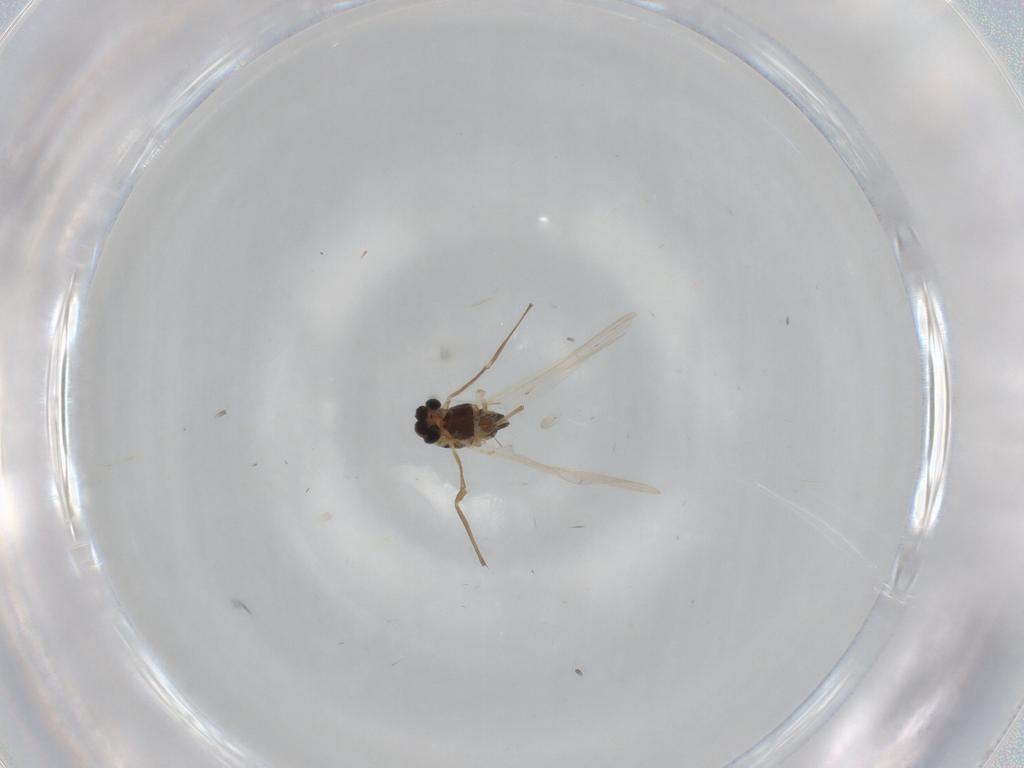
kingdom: Animalia
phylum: Arthropoda
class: Insecta
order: Diptera
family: Chironomidae
